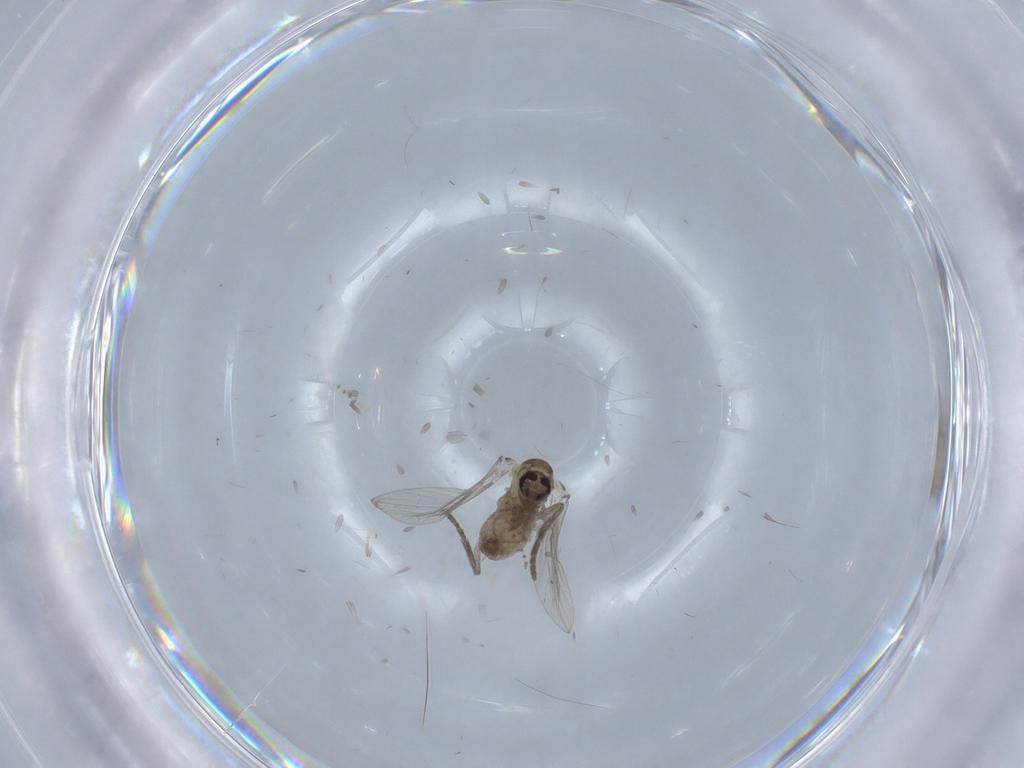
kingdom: Animalia
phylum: Arthropoda
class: Insecta
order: Diptera
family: Psychodidae
